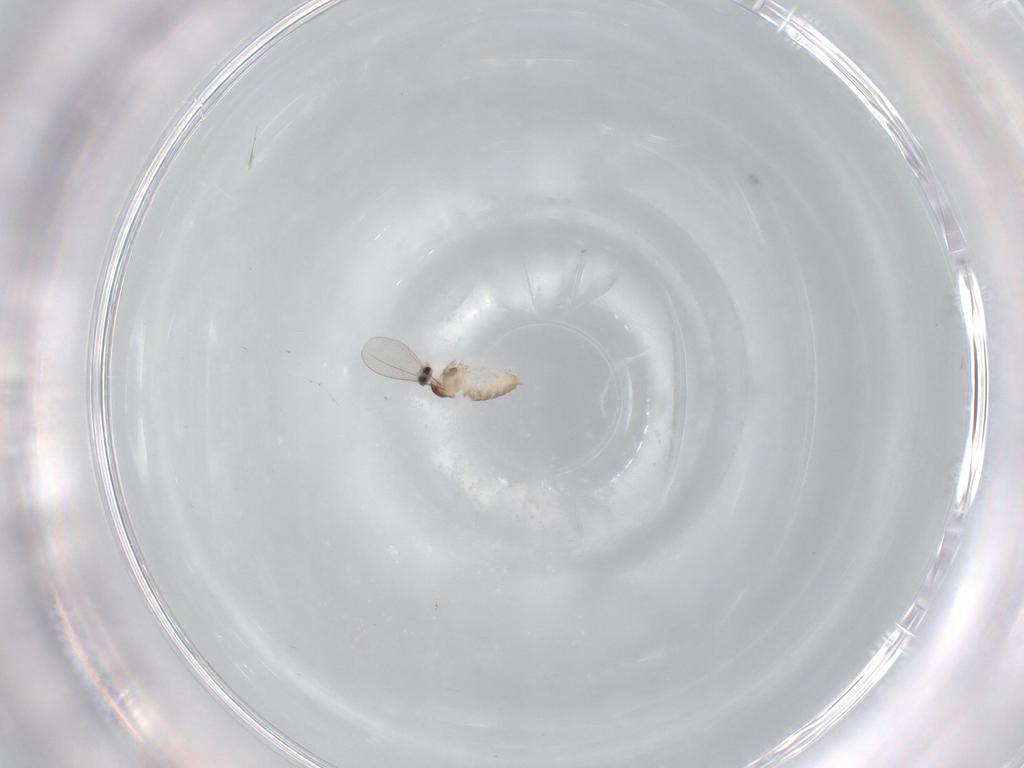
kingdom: Animalia
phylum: Arthropoda
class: Insecta
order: Diptera
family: Cecidomyiidae
